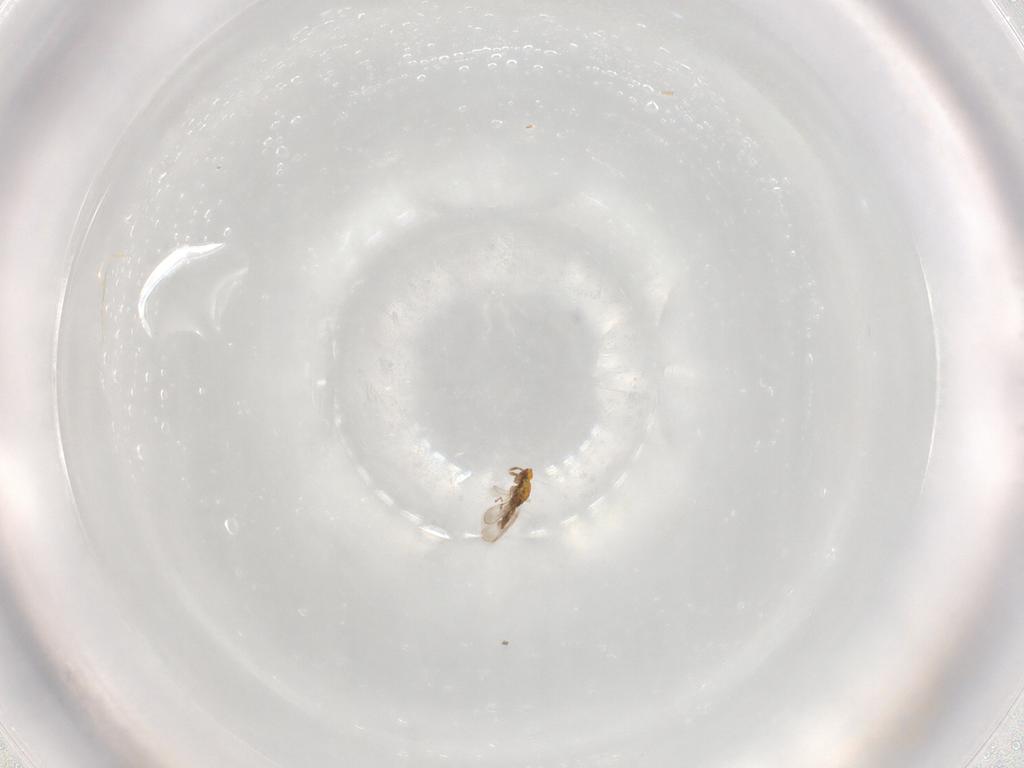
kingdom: Animalia
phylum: Arthropoda
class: Insecta
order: Hymenoptera
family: Eulophidae
